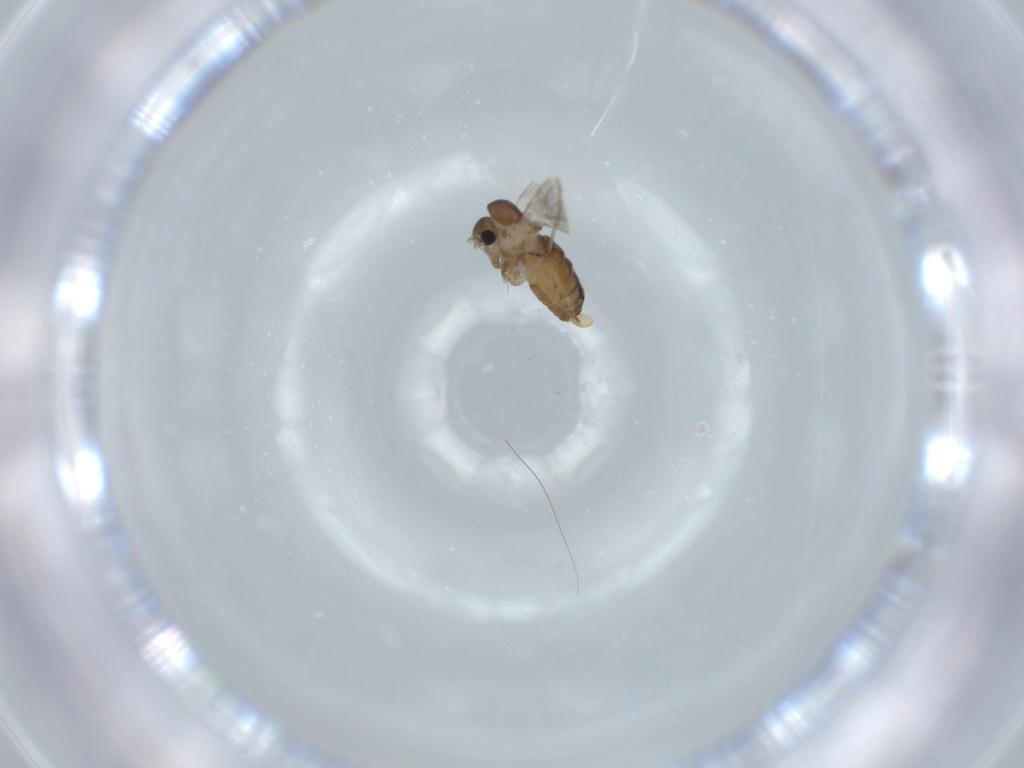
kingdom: Animalia
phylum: Arthropoda
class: Insecta
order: Diptera
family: Psychodidae
